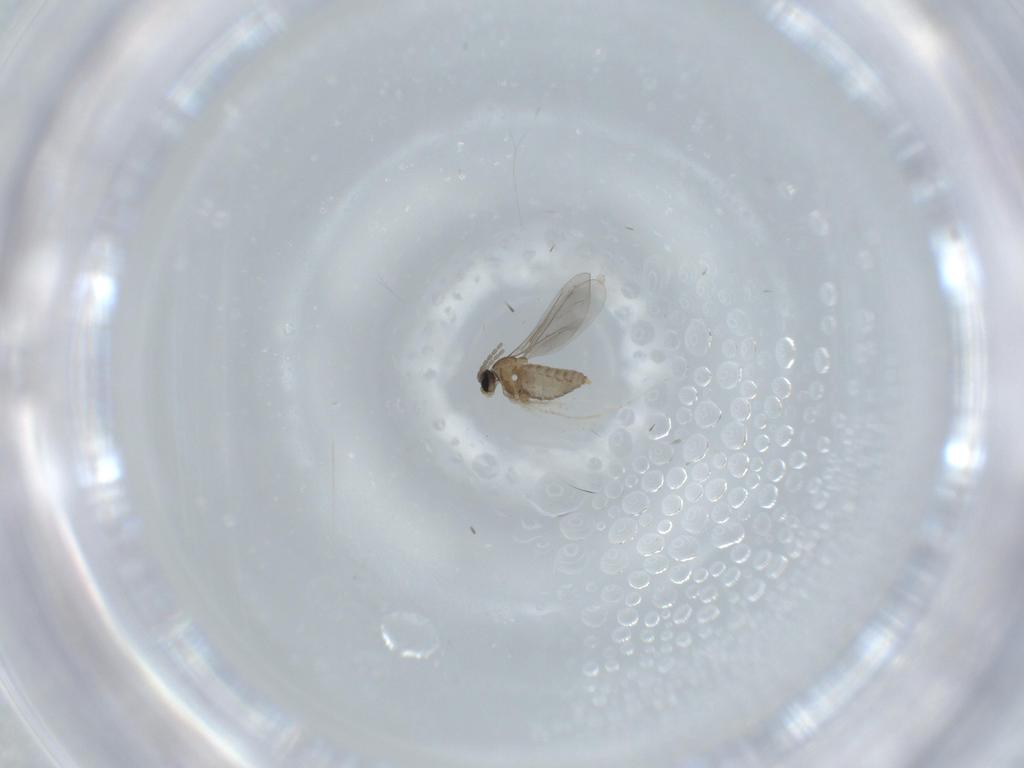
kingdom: Animalia
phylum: Arthropoda
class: Insecta
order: Diptera
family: Cecidomyiidae
